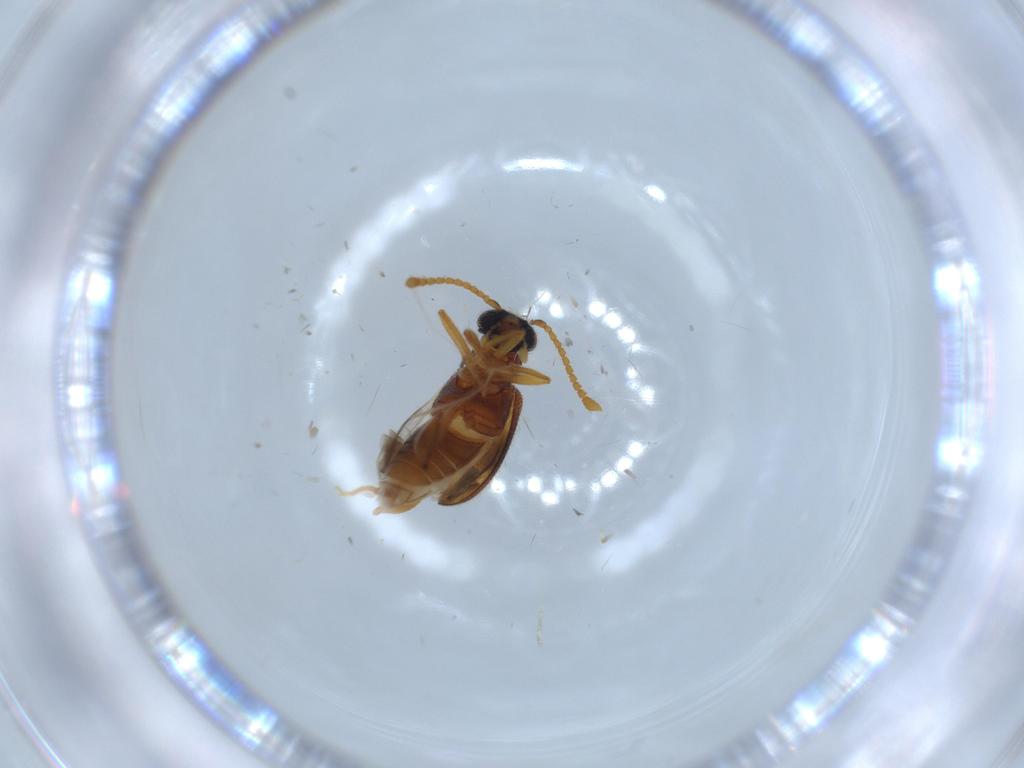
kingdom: Animalia
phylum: Arthropoda
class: Insecta
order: Coleoptera
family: Aderidae
